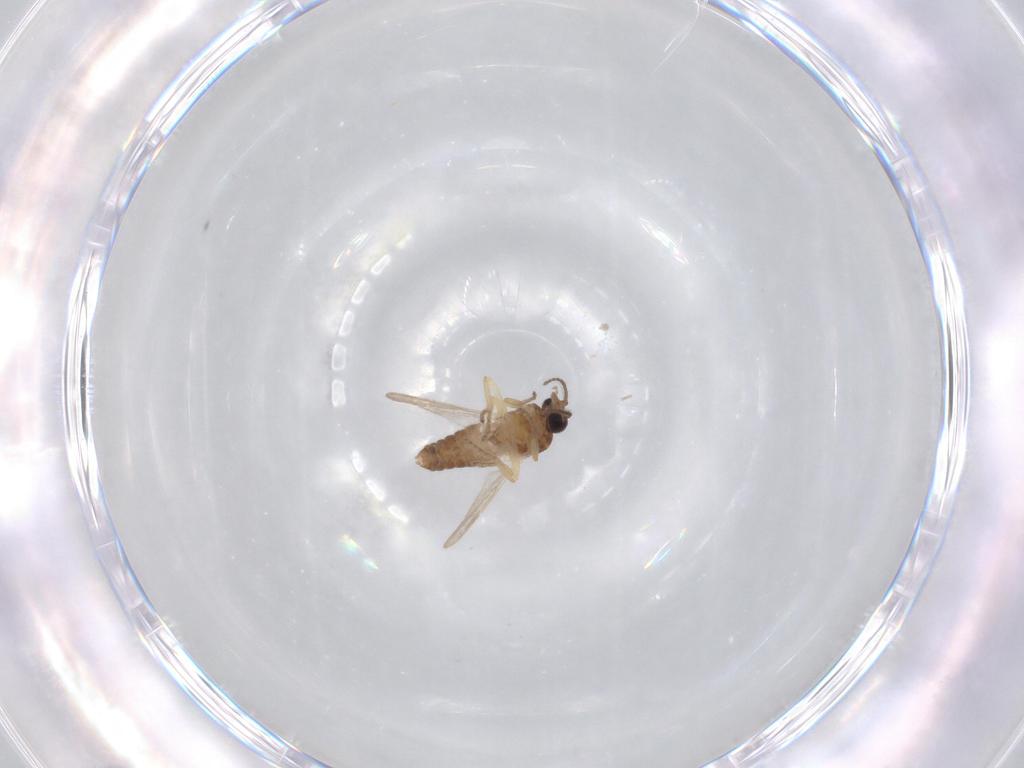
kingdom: Animalia
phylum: Arthropoda
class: Insecta
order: Diptera
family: Ceratopogonidae
